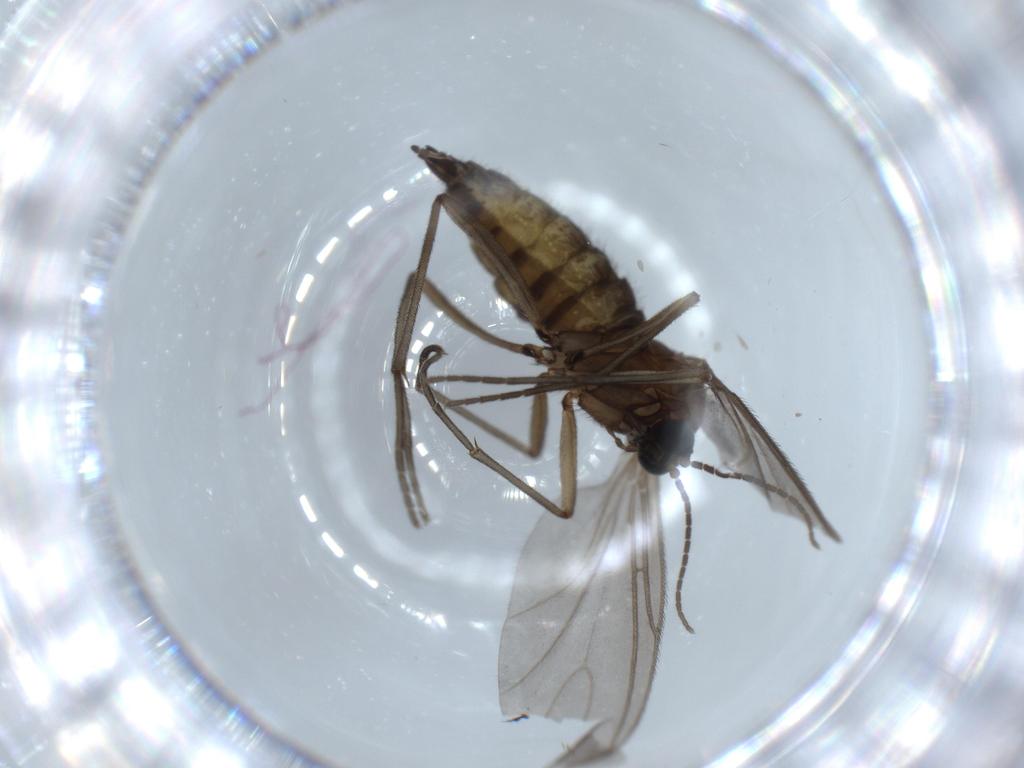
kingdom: Animalia
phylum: Arthropoda
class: Insecta
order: Diptera
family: Sciaridae
